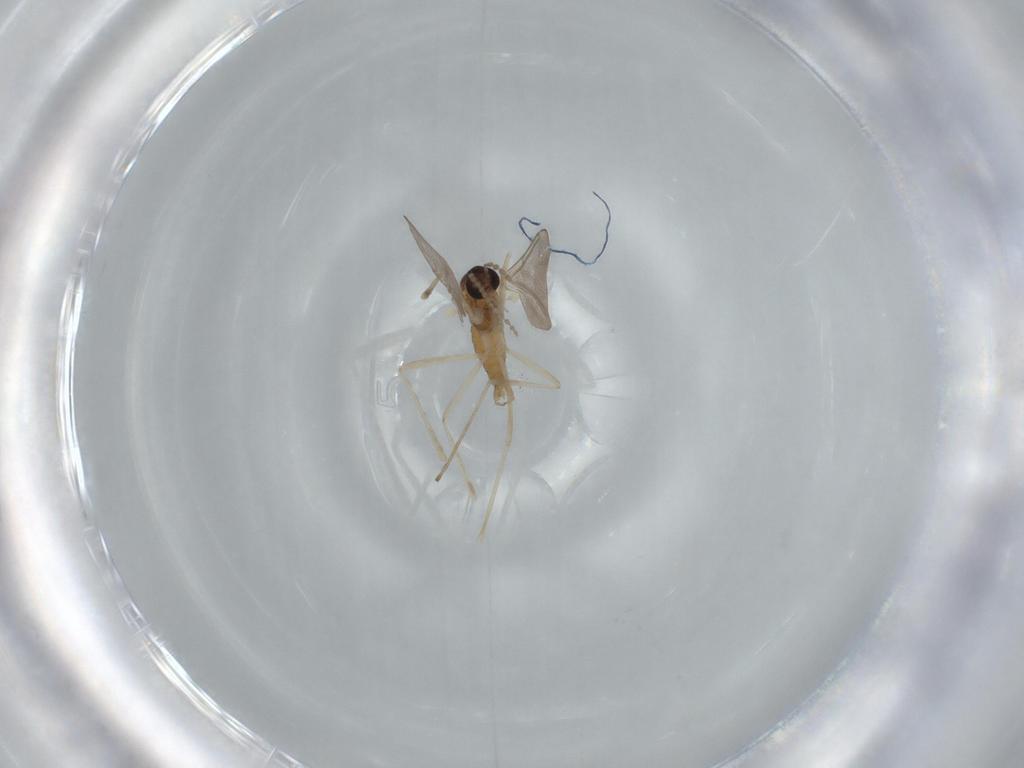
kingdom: Animalia
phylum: Arthropoda
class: Insecta
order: Diptera
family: Cecidomyiidae
